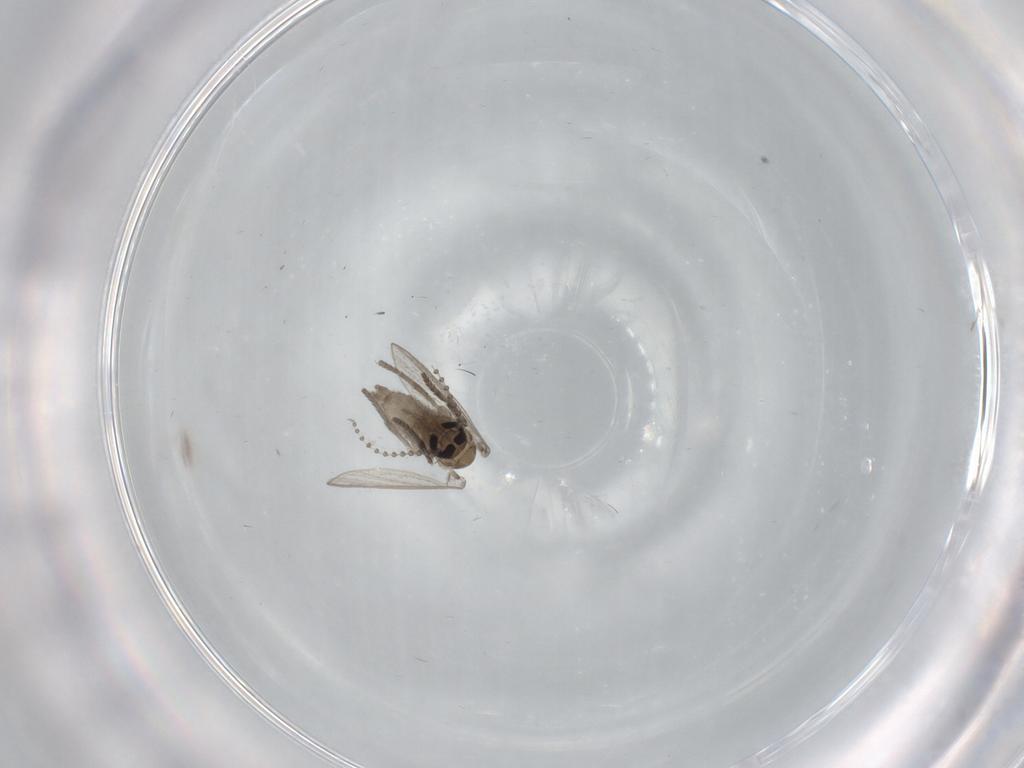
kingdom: Animalia
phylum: Arthropoda
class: Insecta
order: Diptera
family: Psychodidae
